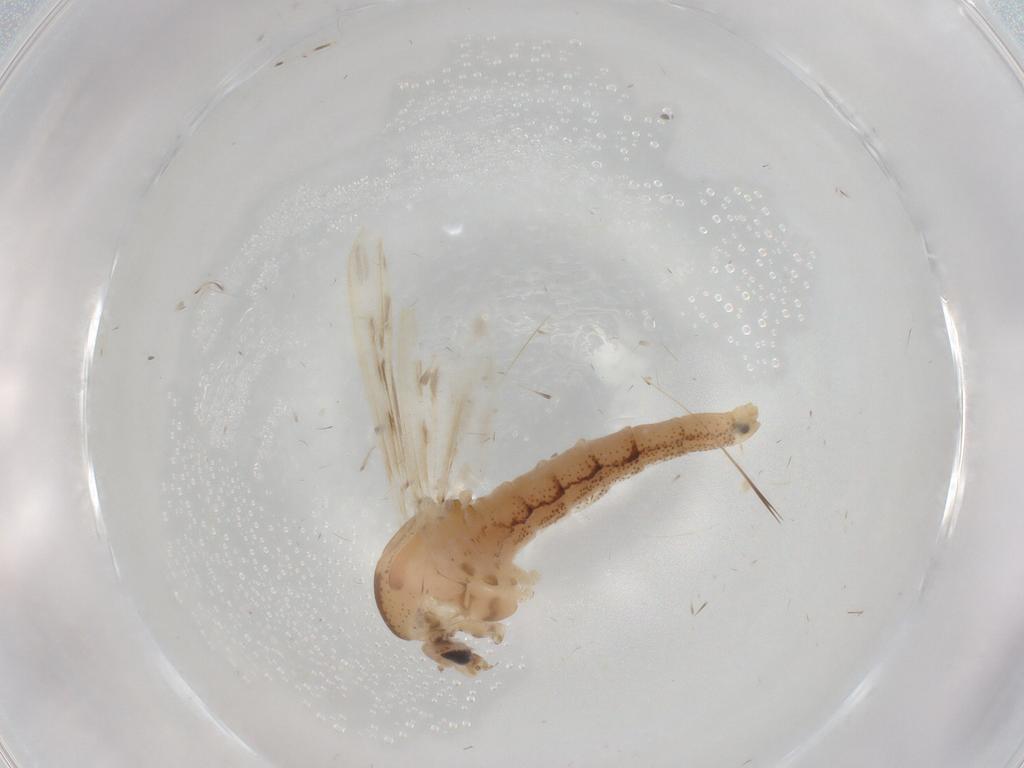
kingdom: Animalia
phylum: Arthropoda
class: Insecta
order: Diptera
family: Chaoboridae
